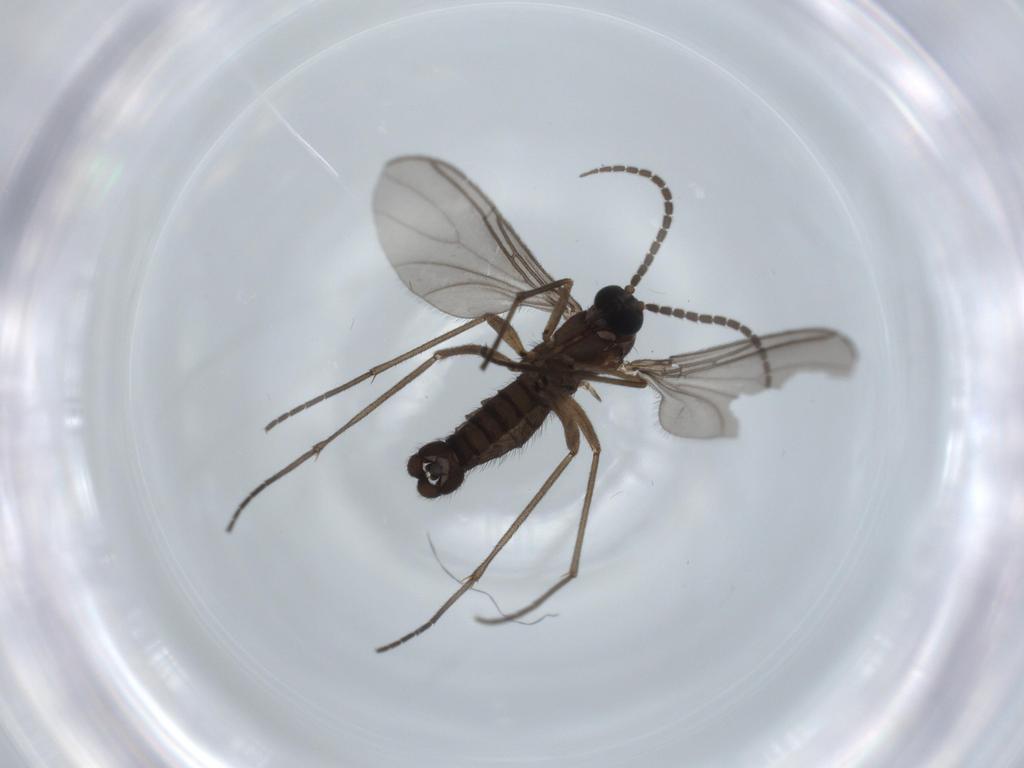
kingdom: Animalia
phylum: Arthropoda
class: Insecta
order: Diptera
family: Sciaridae
